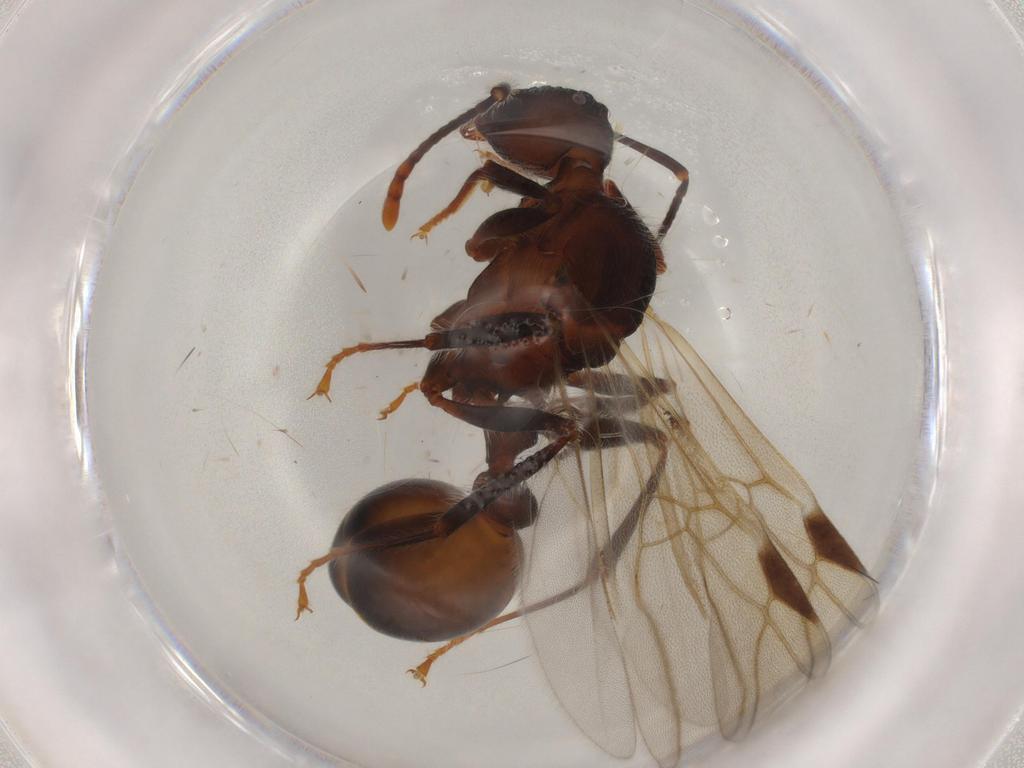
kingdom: Animalia
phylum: Arthropoda
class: Insecta
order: Hymenoptera
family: Formicidae
